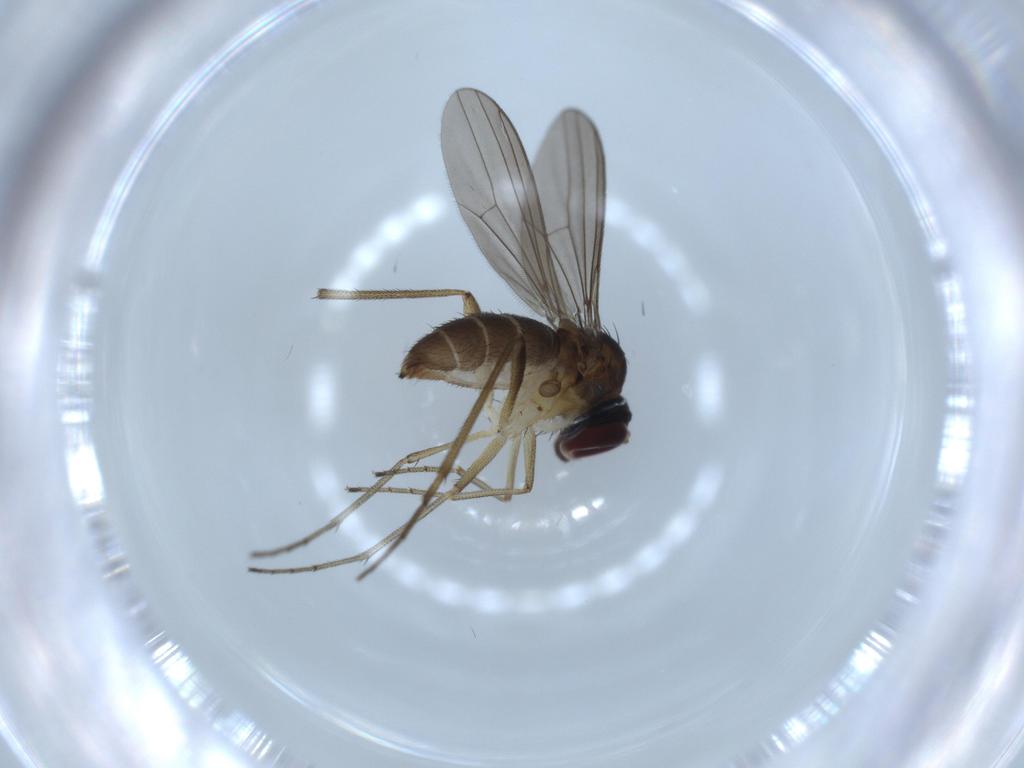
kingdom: Animalia
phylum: Arthropoda
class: Insecta
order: Diptera
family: Dolichopodidae
